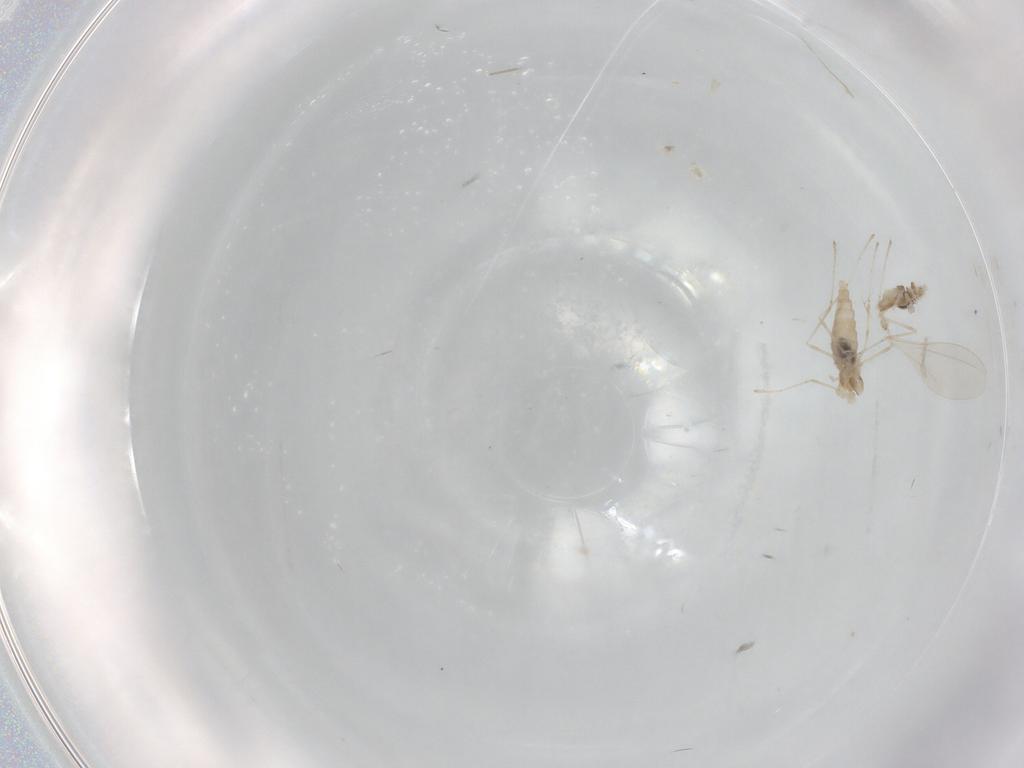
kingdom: Animalia
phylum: Arthropoda
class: Insecta
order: Diptera
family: Cecidomyiidae
